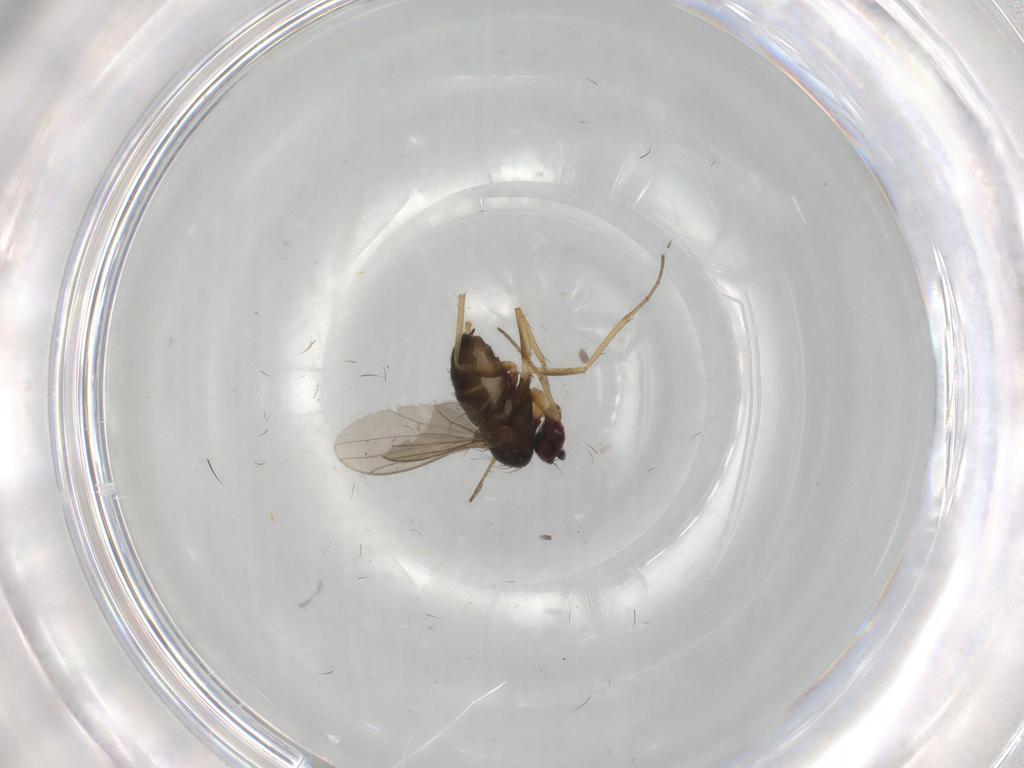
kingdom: Animalia
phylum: Arthropoda
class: Insecta
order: Diptera
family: Dolichopodidae
